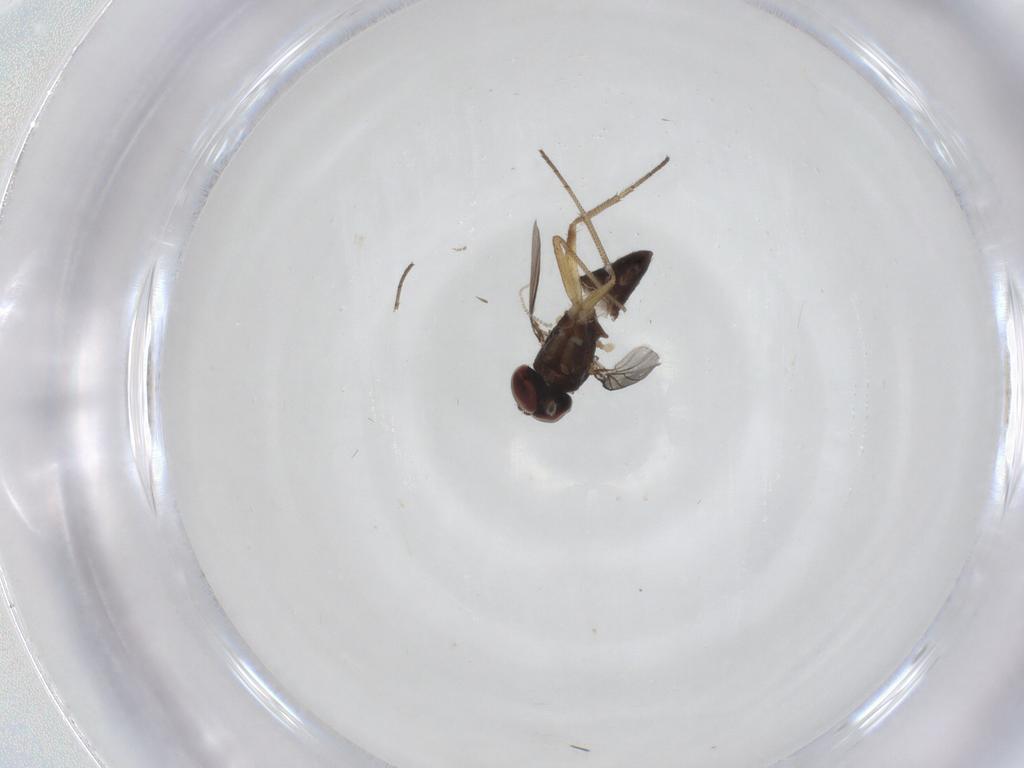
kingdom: Animalia
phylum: Arthropoda
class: Insecta
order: Diptera
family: Dolichopodidae
